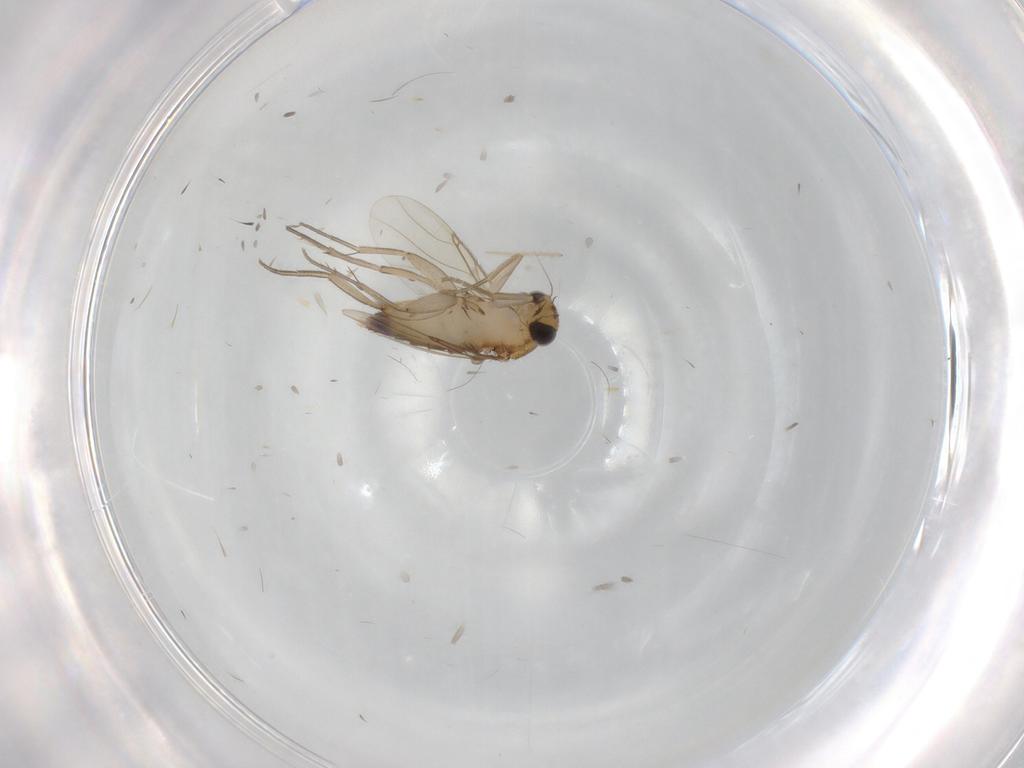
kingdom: Animalia
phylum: Arthropoda
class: Insecta
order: Diptera
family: Phoridae
